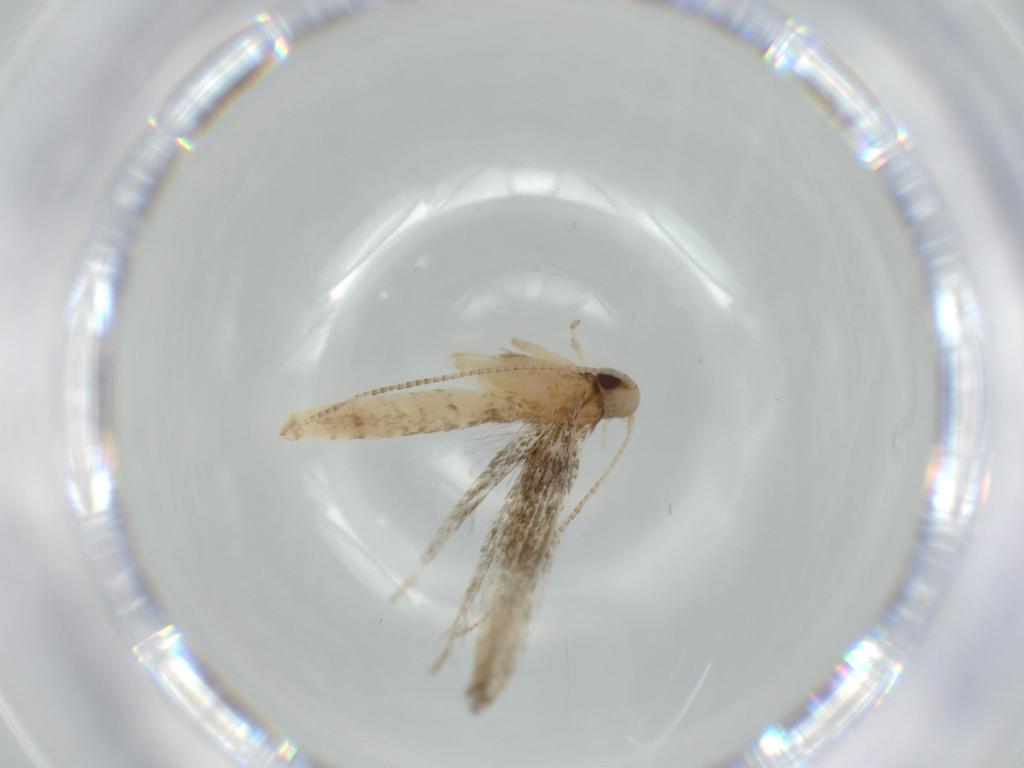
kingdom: Animalia
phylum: Arthropoda
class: Insecta
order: Lepidoptera
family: Gracillariidae
